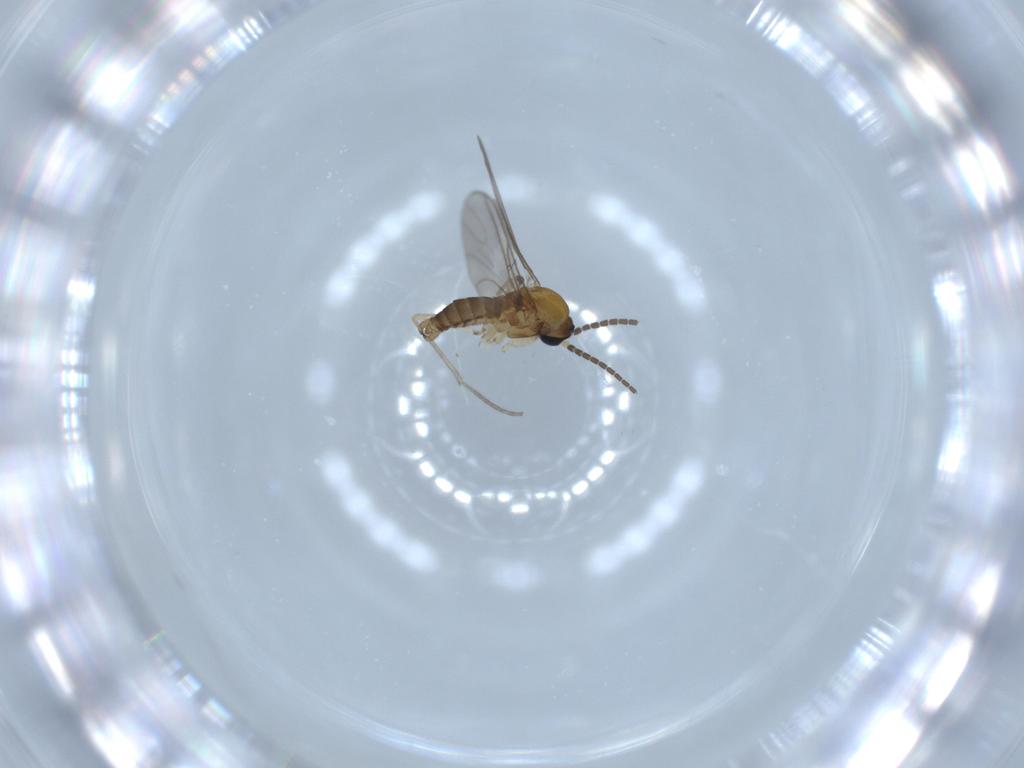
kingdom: Animalia
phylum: Arthropoda
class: Insecta
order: Diptera
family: Sciaridae
